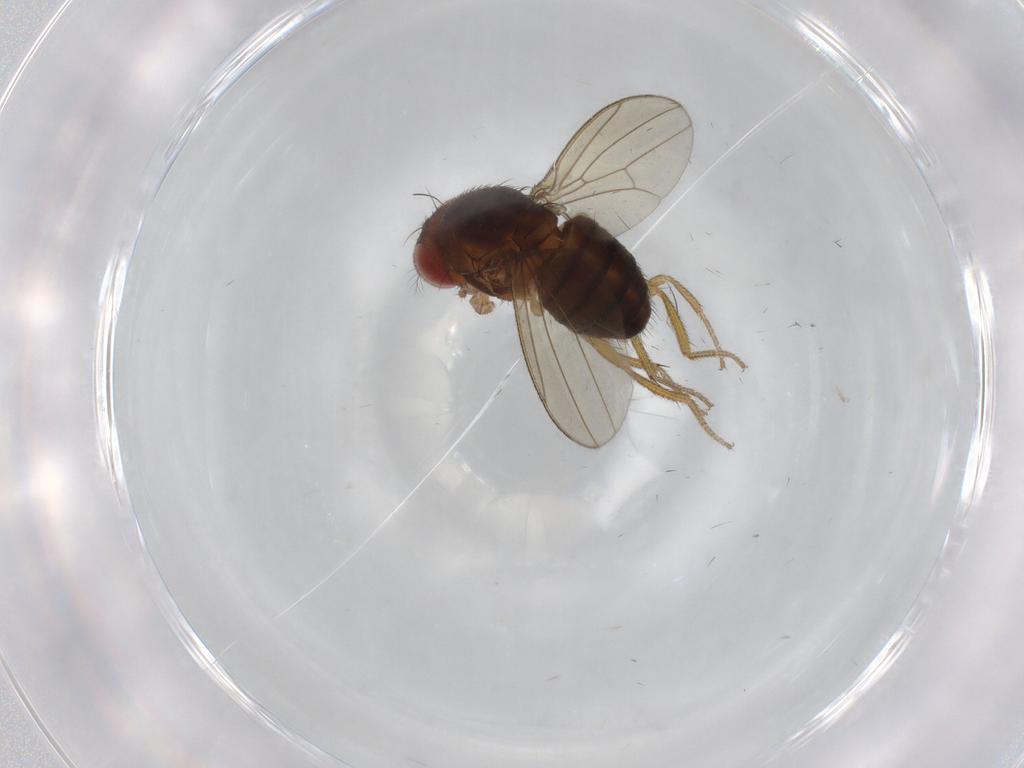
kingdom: Animalia
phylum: Arthropoda
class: Insecta
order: Diptera
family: Drosophilidae
